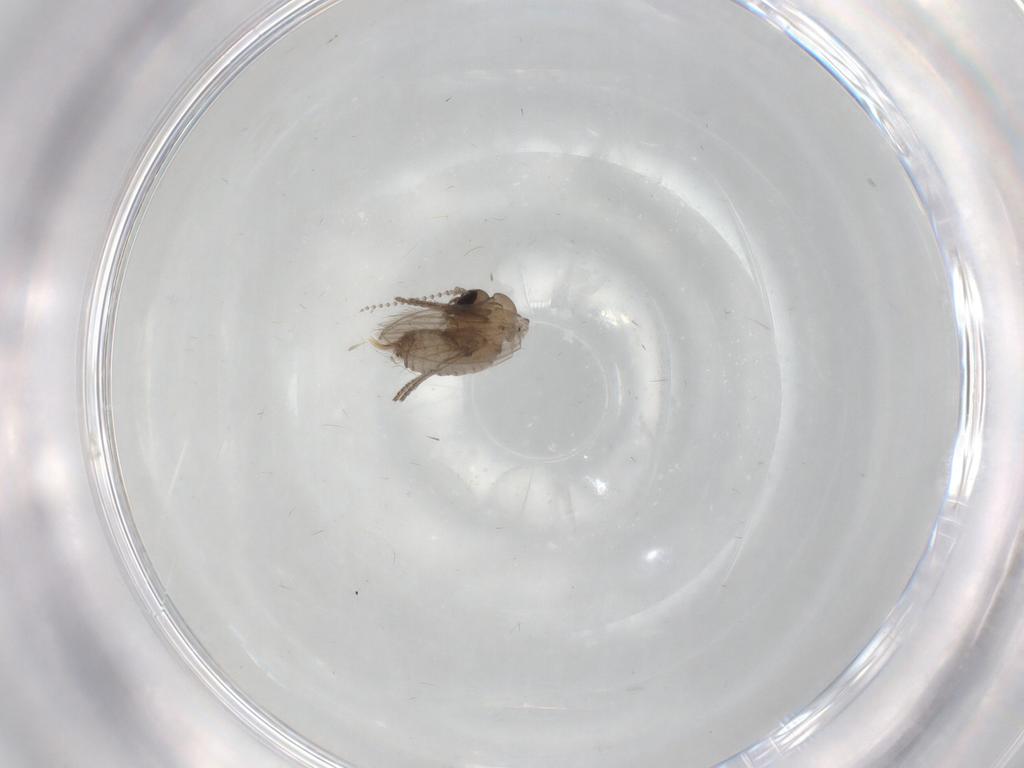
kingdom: Animalia
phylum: Arthropoda
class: Insecta
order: Diptera
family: Psychodidae
